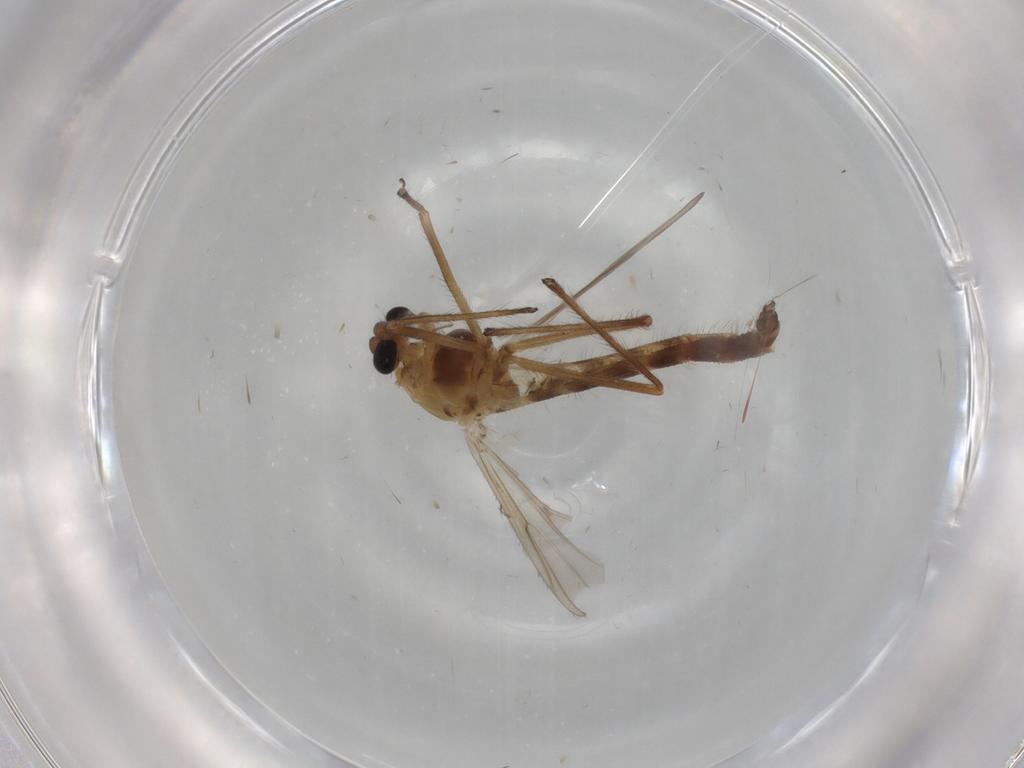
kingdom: Animalia
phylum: Arthropoda
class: Insecta
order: Diptera
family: Chironomidae
